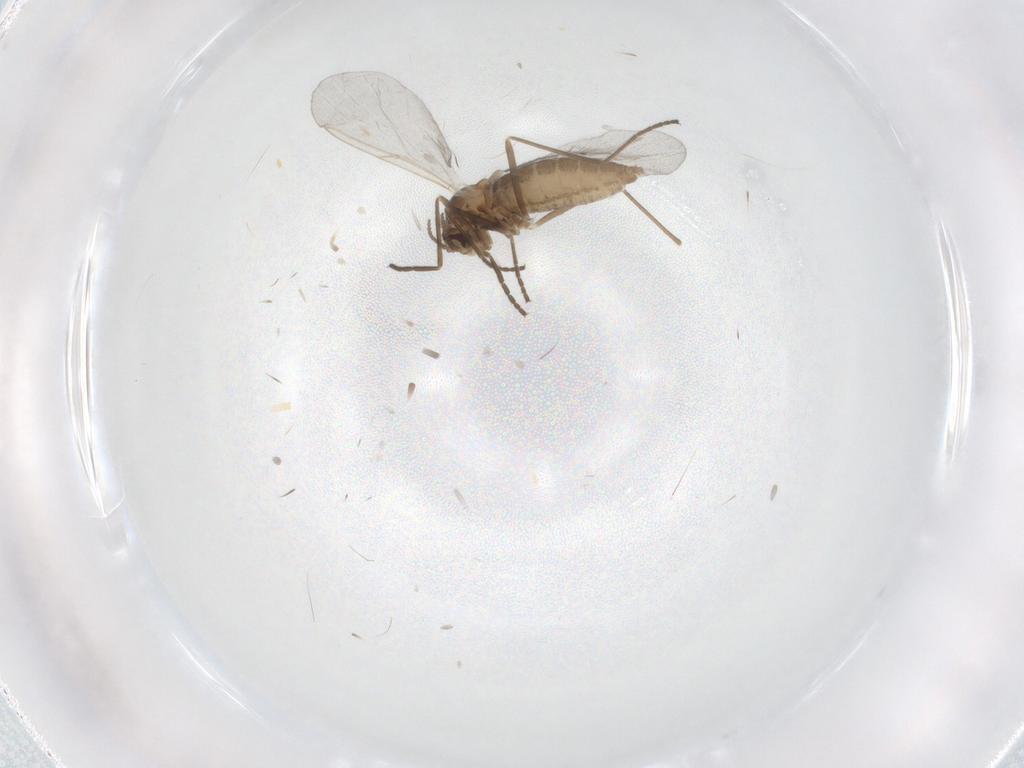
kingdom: Animalia
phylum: Arthropoda
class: Insecta
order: Diptera
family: Cecidomyiidae
